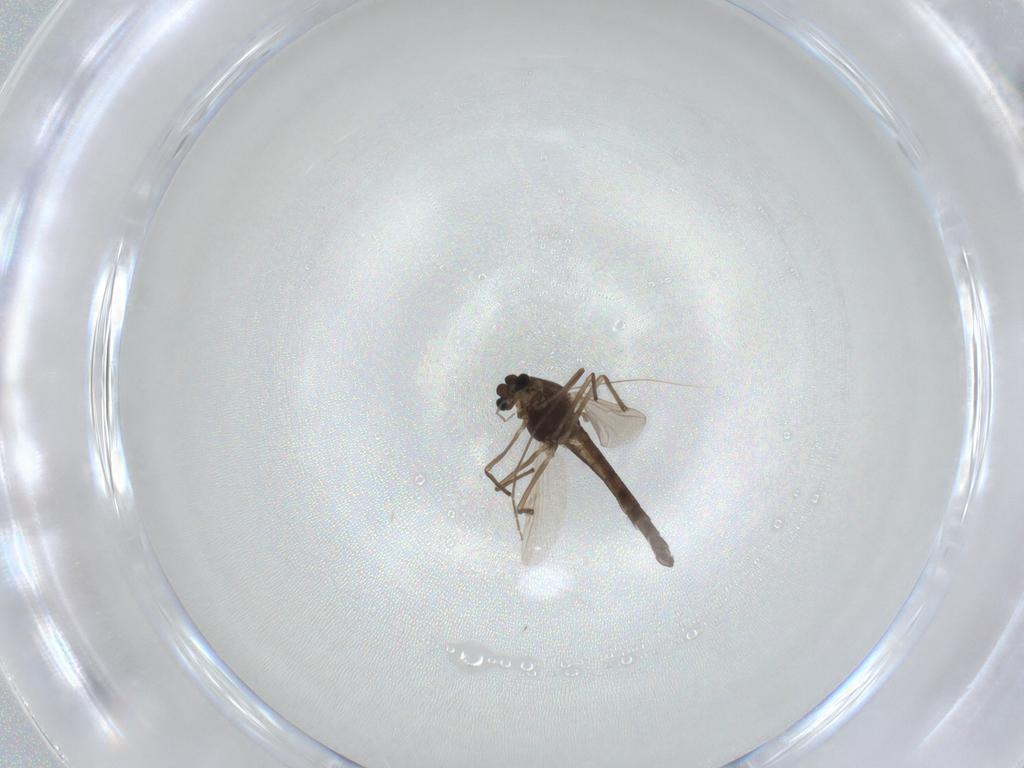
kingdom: Animalia
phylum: Arthropoda
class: Insecta
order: Diptera
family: Chironomidae
